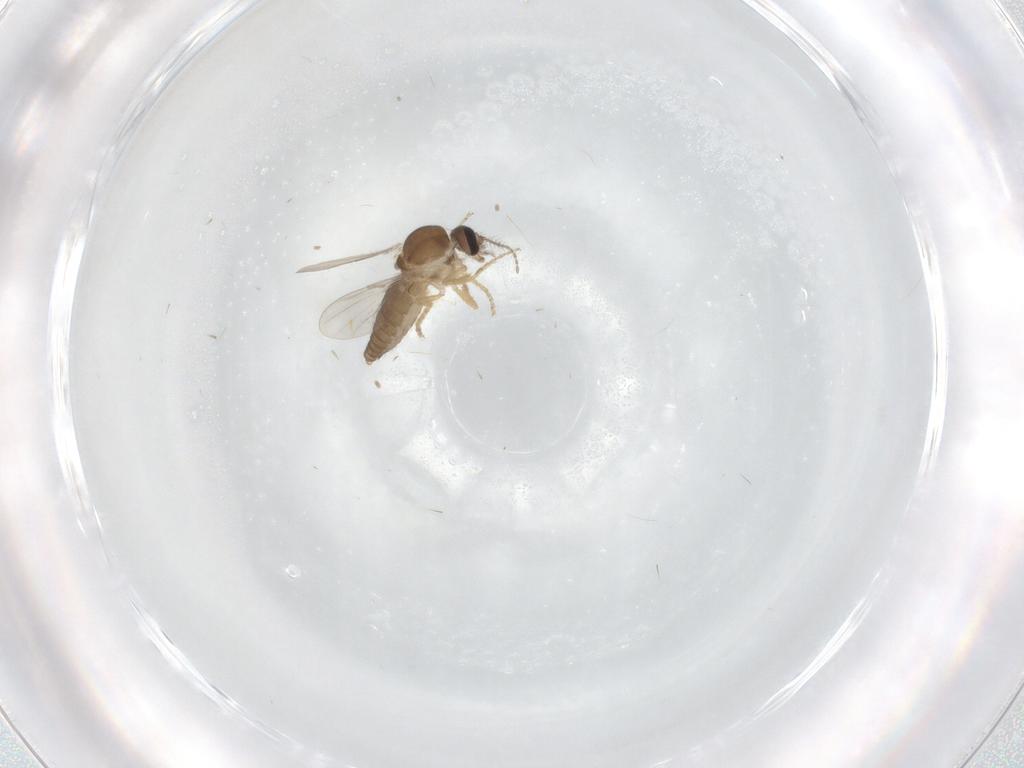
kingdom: Animalia
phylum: Arthropoda
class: Insecta
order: Diptera
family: Ceratopogonidae
